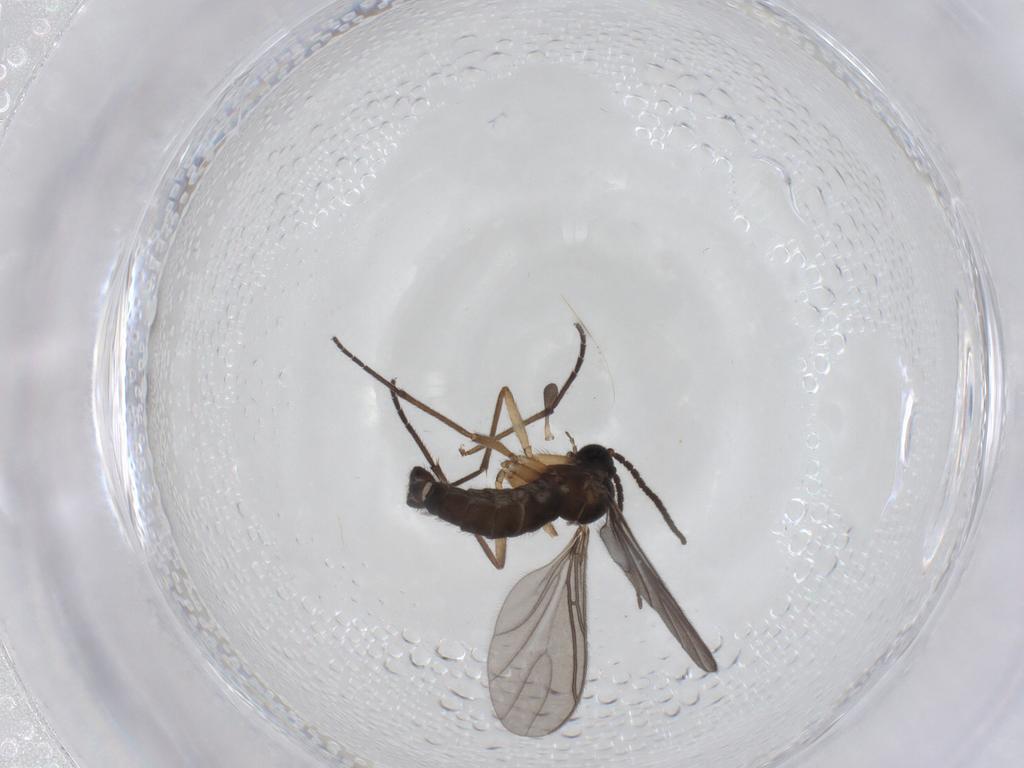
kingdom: Animalia
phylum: Arthropoda
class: Insecta
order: Diptera
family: Sciaridae
